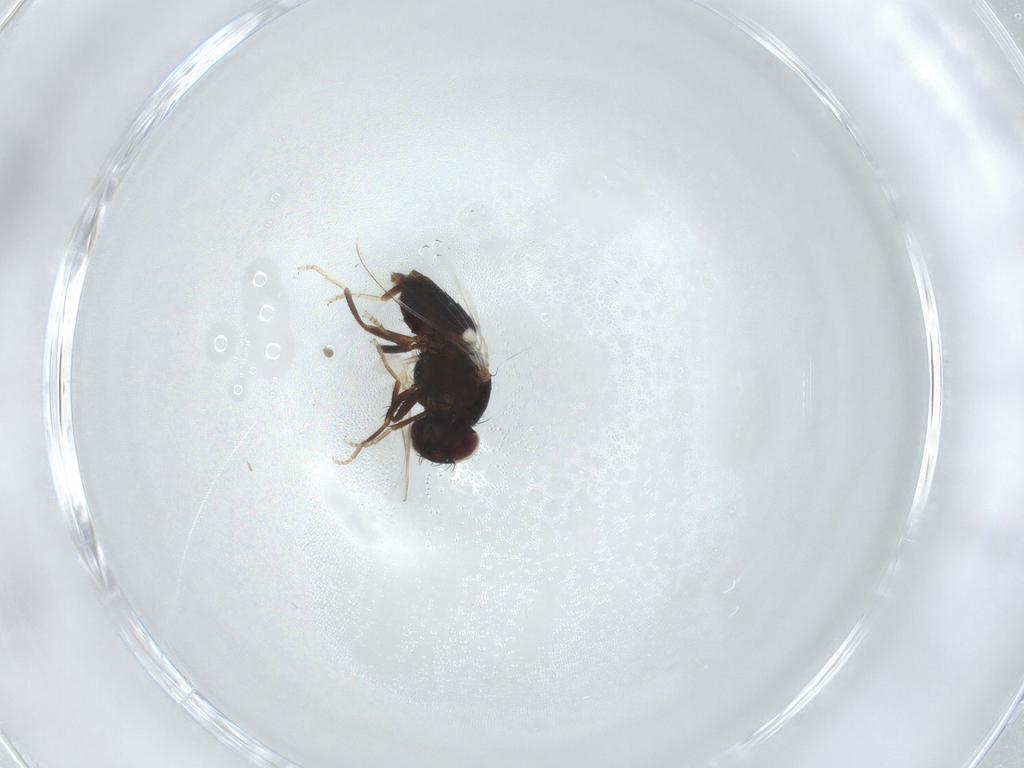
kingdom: Animalia
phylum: Arthropoda
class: Insecta
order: Diptera
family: Carnidae
